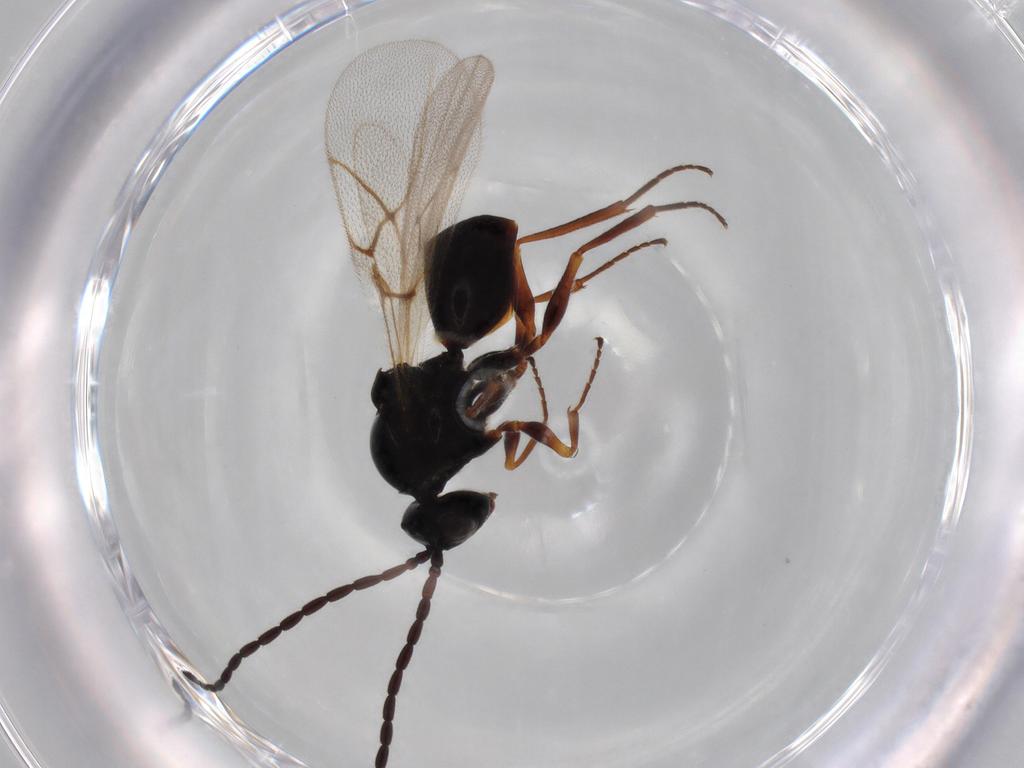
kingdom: Animalia
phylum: Arthropoda
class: Insecta
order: Hymenoptera
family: Figitidae
